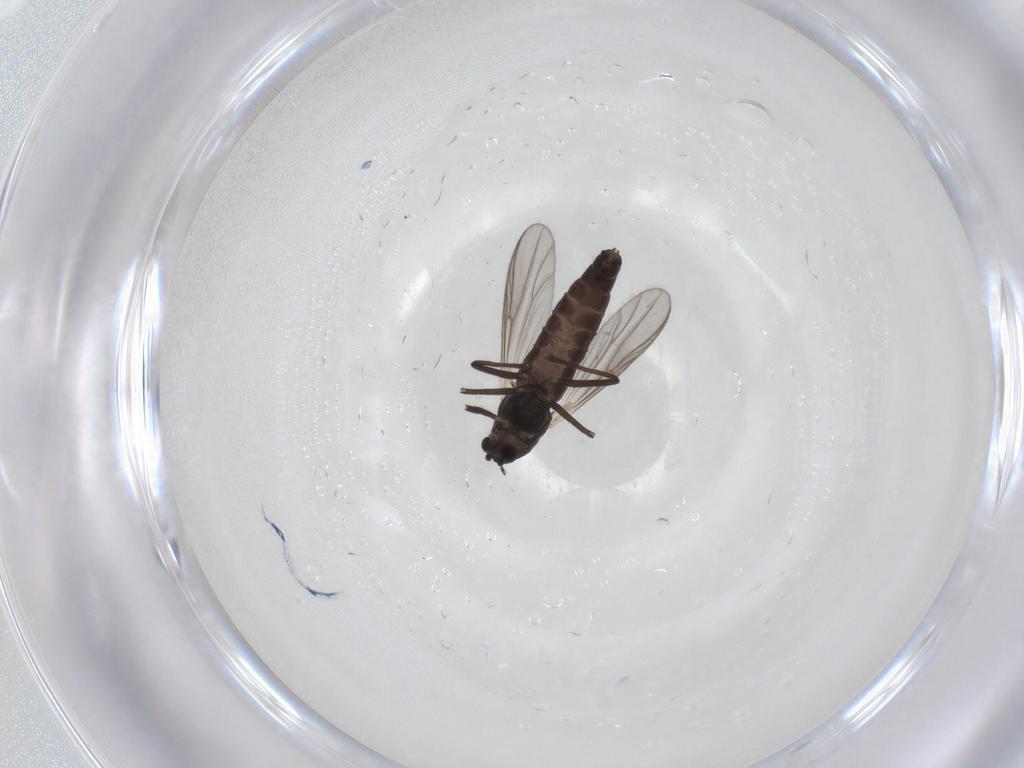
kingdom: Animalia
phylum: Arthropoda
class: Insecta
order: Diptera
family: Chironomidae
